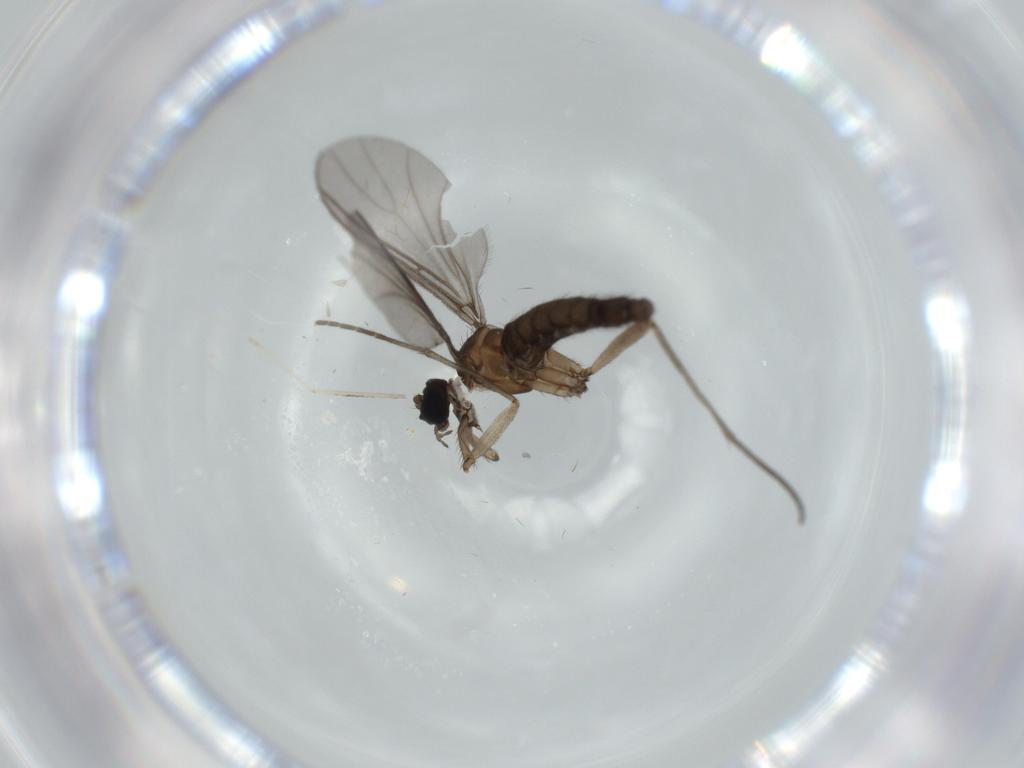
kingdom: Animalia
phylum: Arthropoda
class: Insecta
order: Diptera
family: Sciaridae
